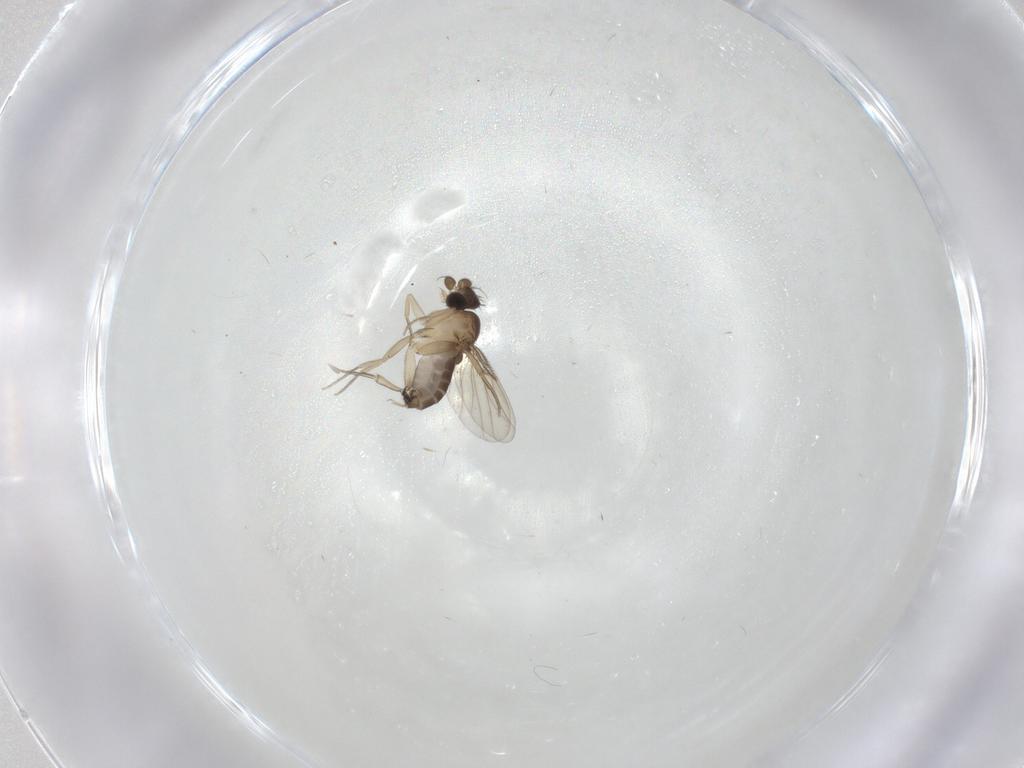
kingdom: Animalia
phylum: Arthropoda
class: Insecta
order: Diptera
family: Phoridae
